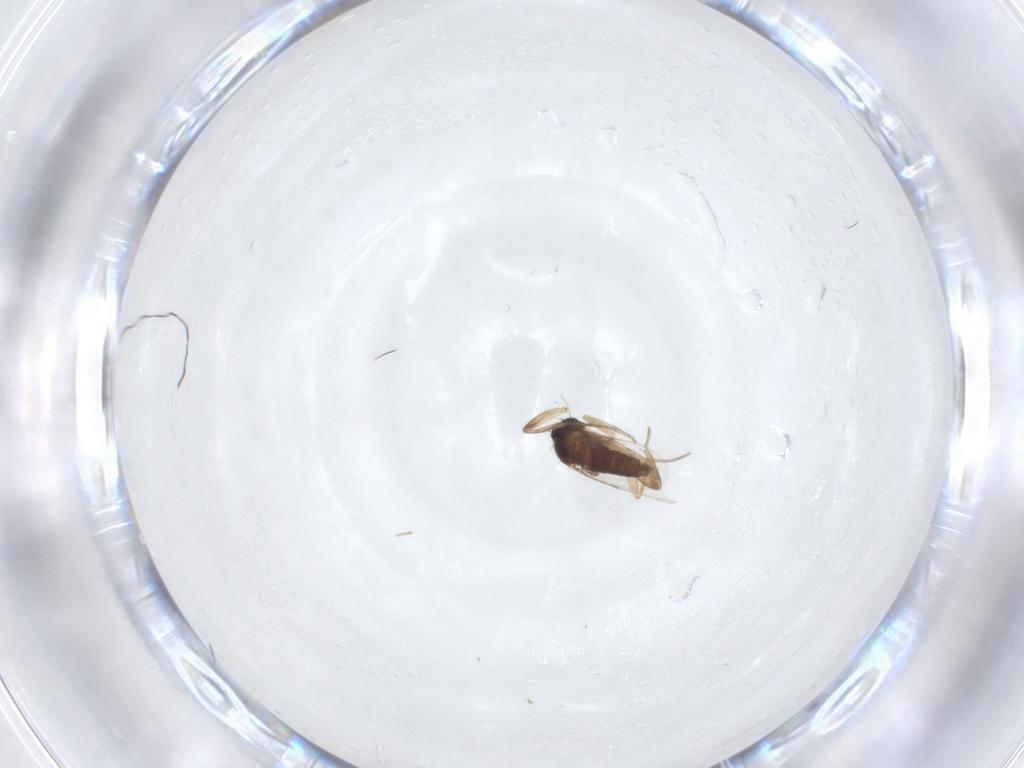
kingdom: Animalia
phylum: Arthropoda
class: Insecta
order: Diptera
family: Phoridae
